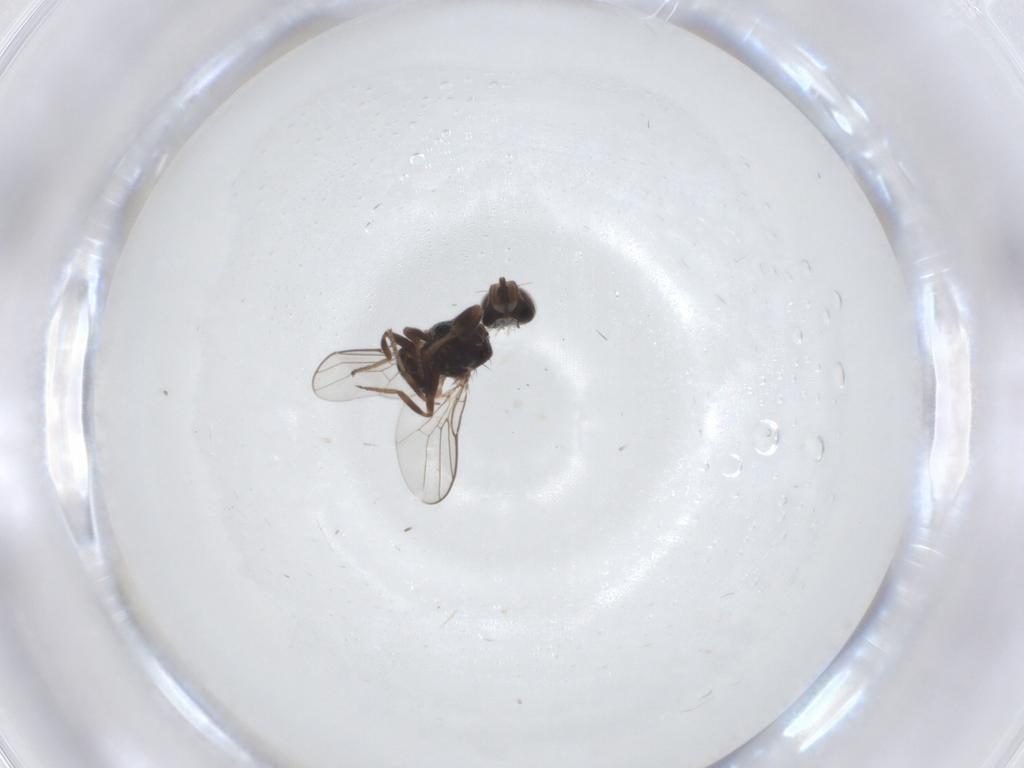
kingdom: Animalia
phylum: Arthropoda
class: Insecta
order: Diptera
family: Chloropidae
